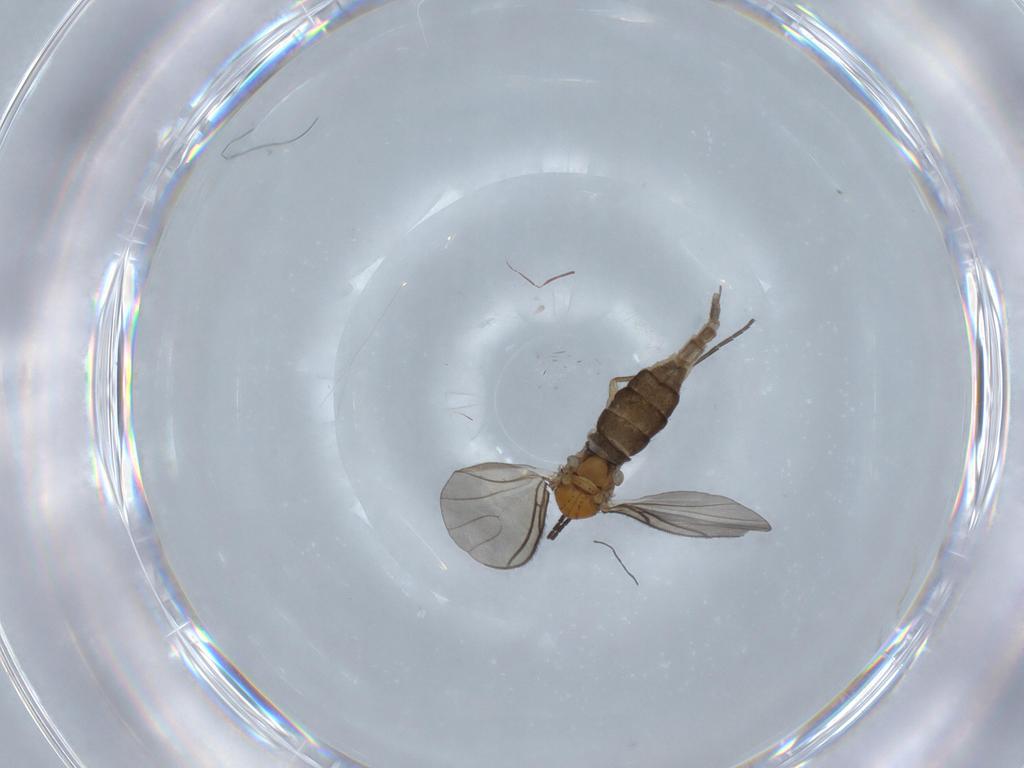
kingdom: Animalia
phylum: Arthropoda
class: Insecta
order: Diptera
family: Sciaridae
